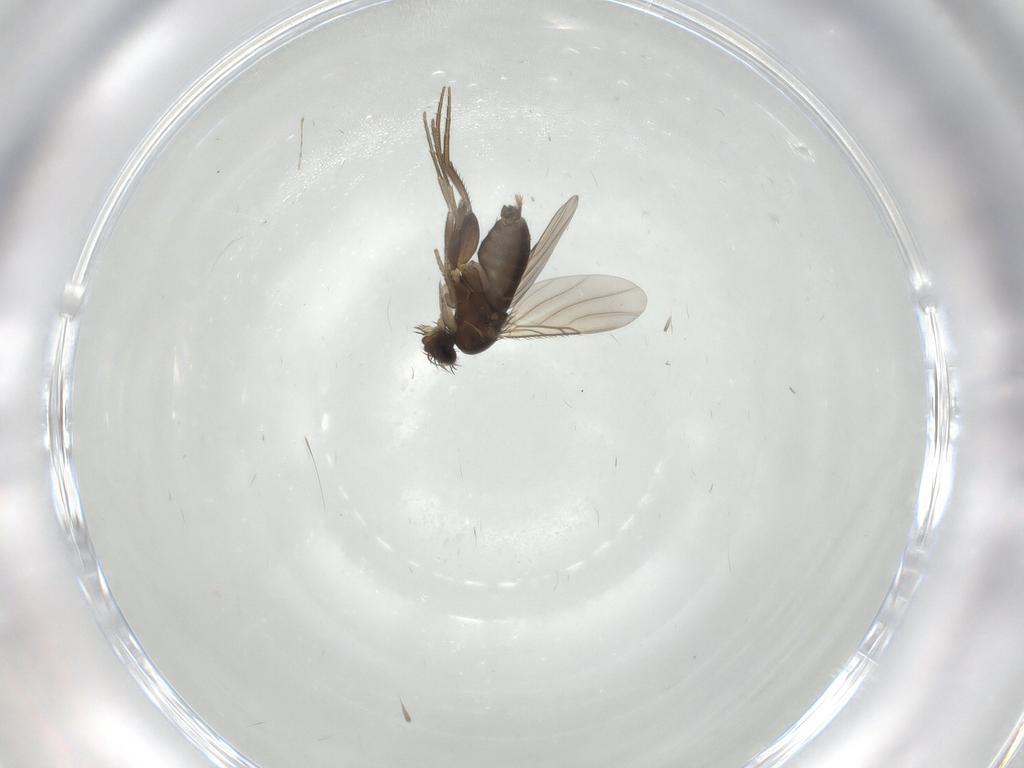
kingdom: Animalia
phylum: Arthropoda
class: Insecta
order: Diptera
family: Phoridae
